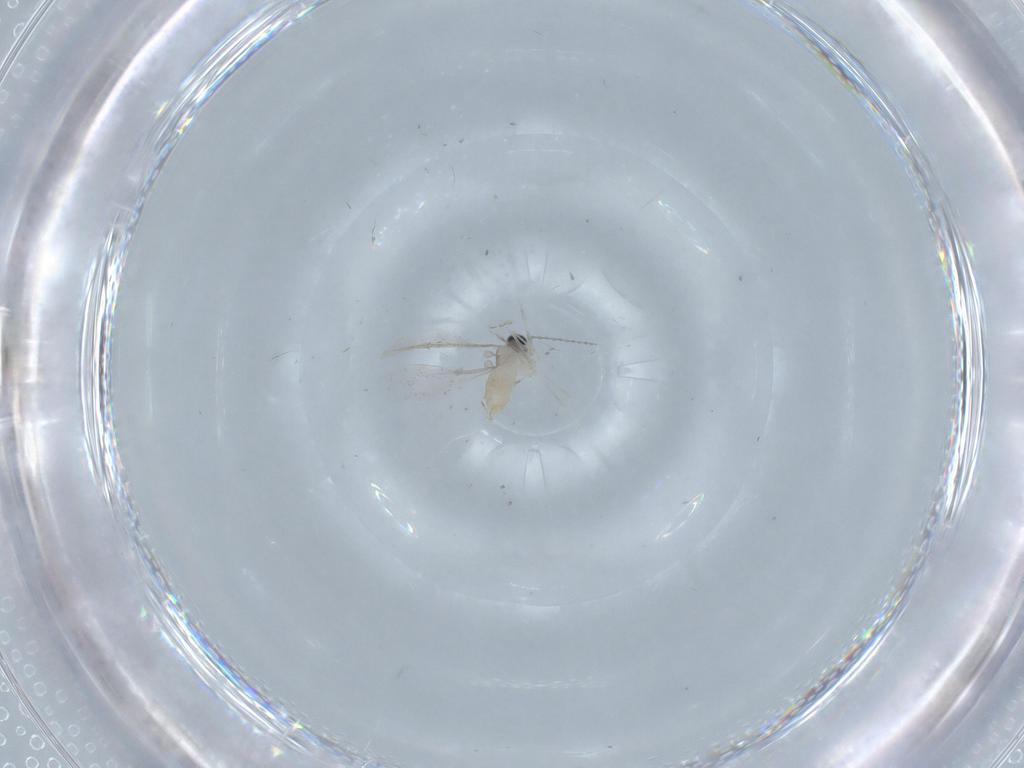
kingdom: Animalia
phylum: Arthropoda
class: Insecta
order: Diptera
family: Cecidomyiidae
